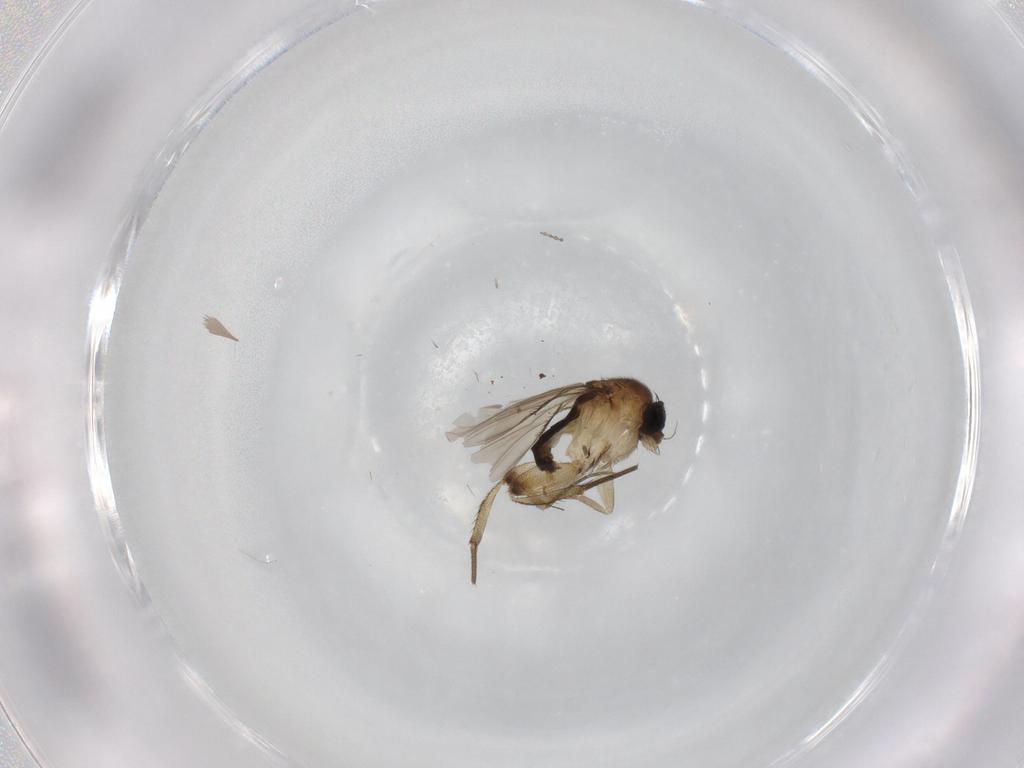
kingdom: Animalia
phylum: Arthropoda
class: Insecta
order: Diptera
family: Phoridae
